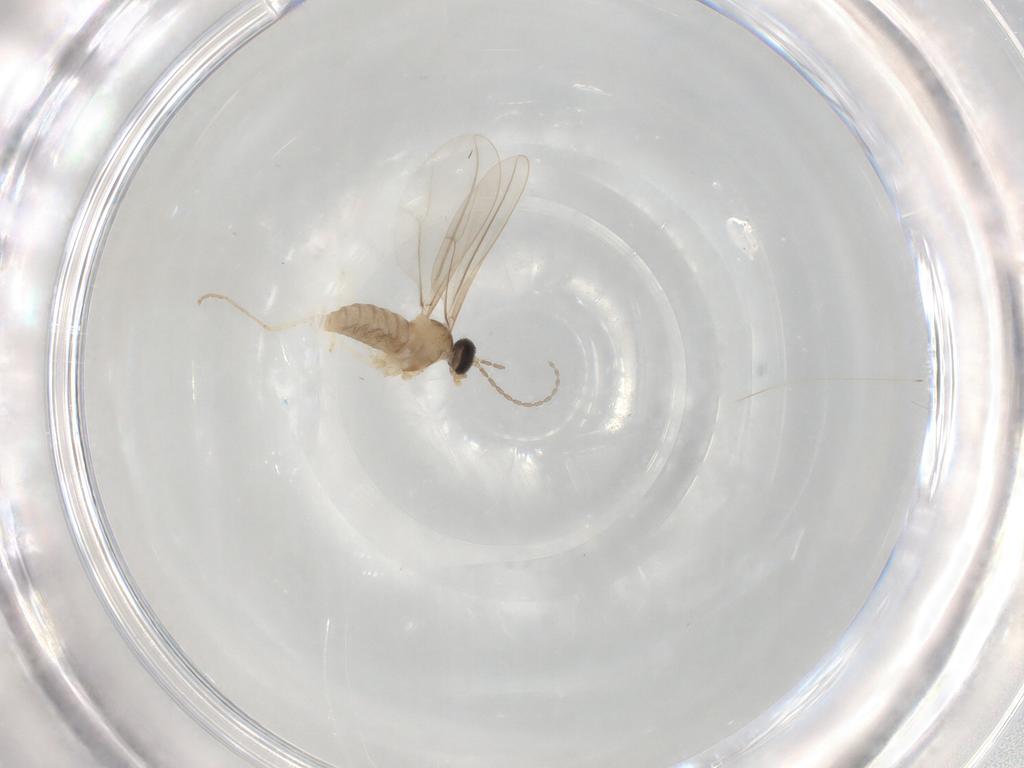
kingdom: Animalia
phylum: Arthropoda
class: Insecta
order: Diptera
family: Cecidomyiidae
